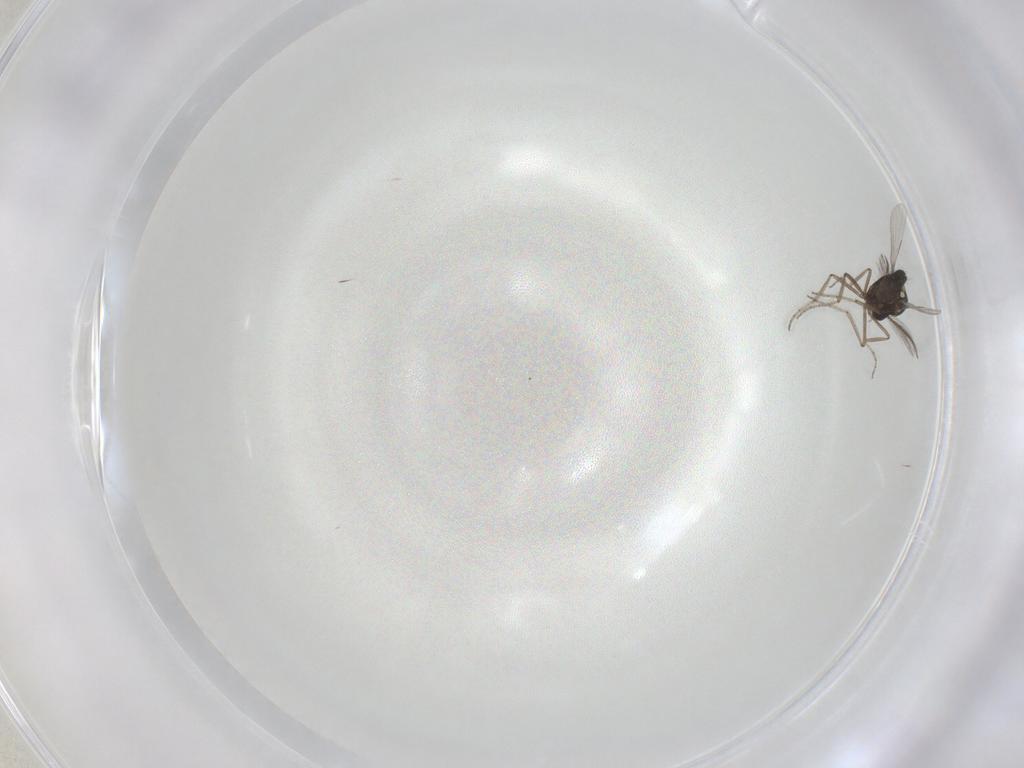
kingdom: Animalia
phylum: Arthropoda
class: Insecta
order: Diptera
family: Ceratopogonidae
